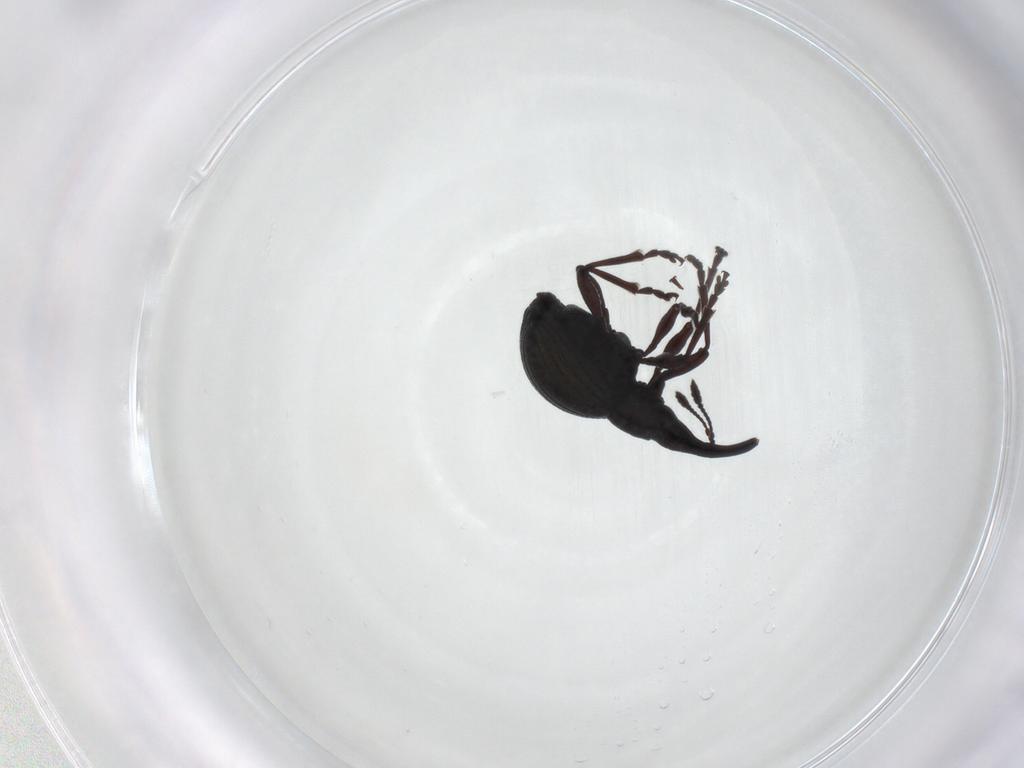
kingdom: Animalia
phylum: Arthropoda
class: Insecta
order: Coleoptera
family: Brentidae
